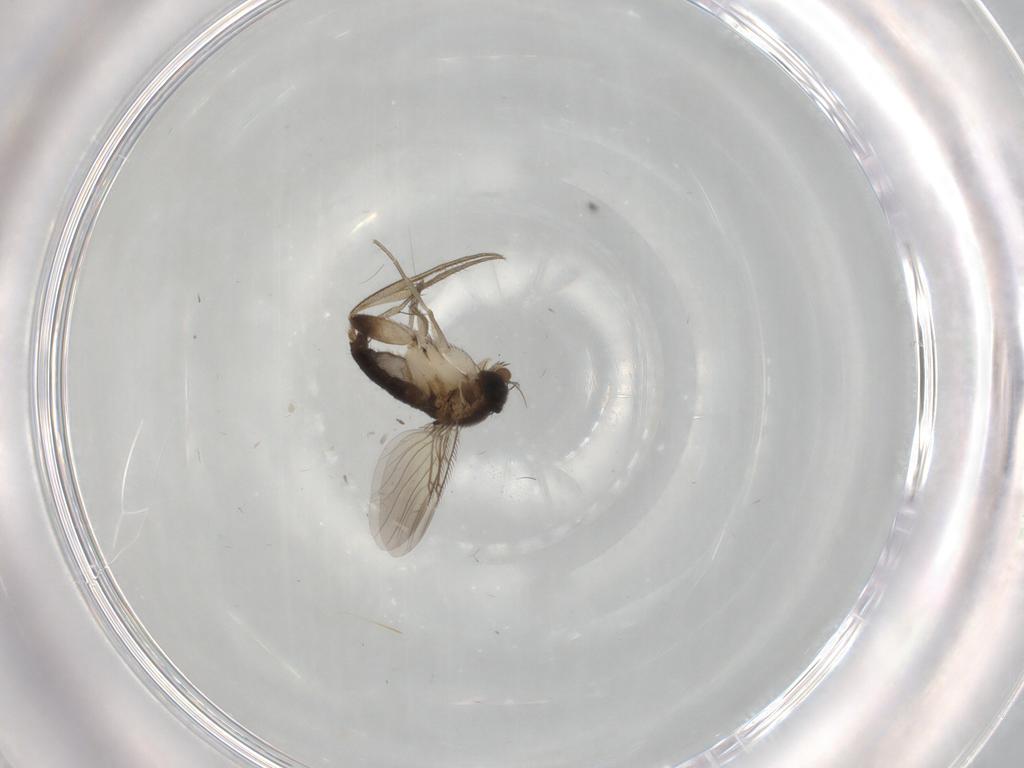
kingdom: Animalia
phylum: Arthropoda
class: Insecta
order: Diptera
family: Phoridae
